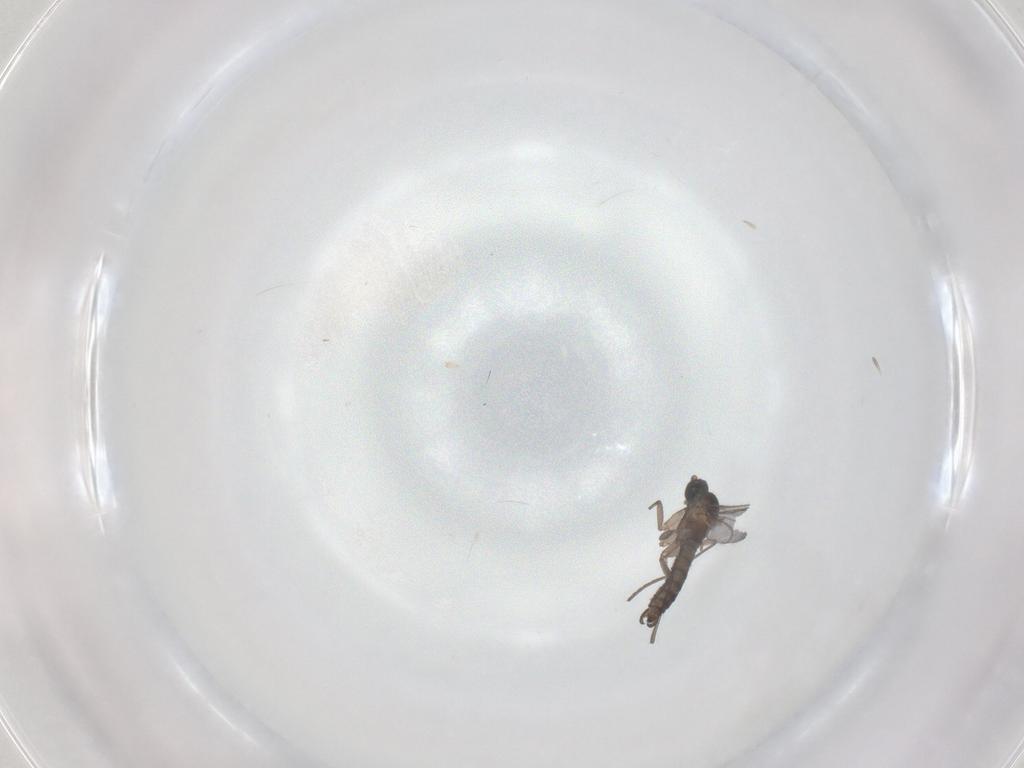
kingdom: Animalia
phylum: Arthropoda
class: Insecta
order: Diptera
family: Sciaridae
